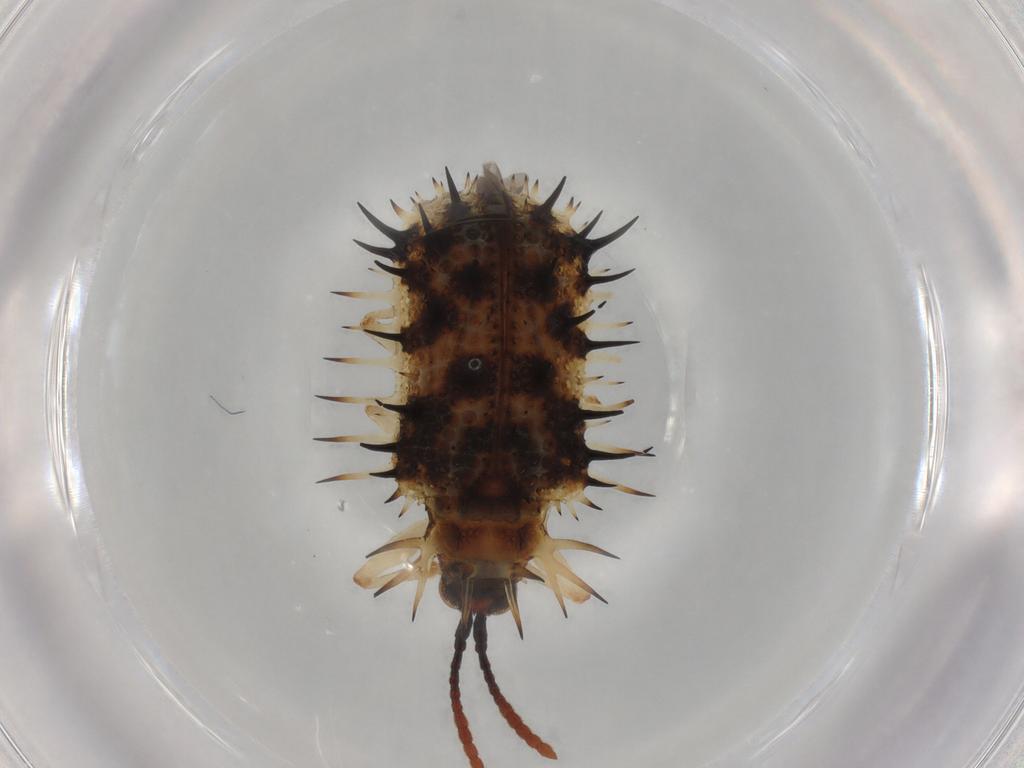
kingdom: Animalia
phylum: Arthropoda
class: Insecta
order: Coleoptera
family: Chrysomelidae
